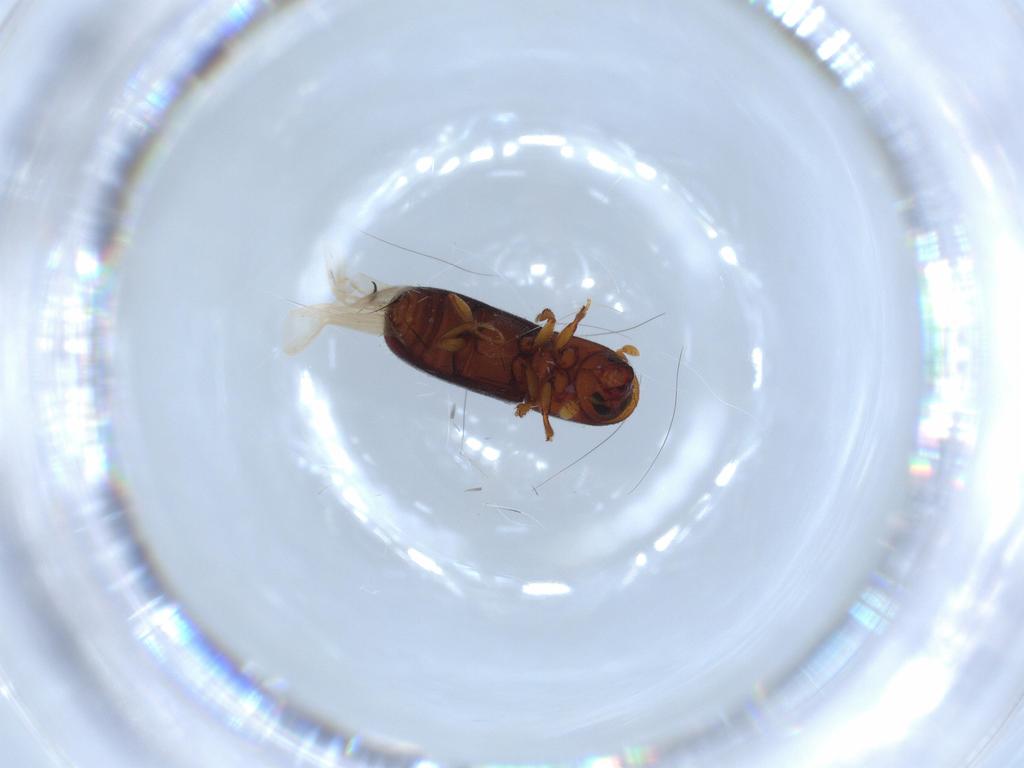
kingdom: Animalia
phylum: Arthropoda
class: Insecta
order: Coleoptera
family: Curculionidae
